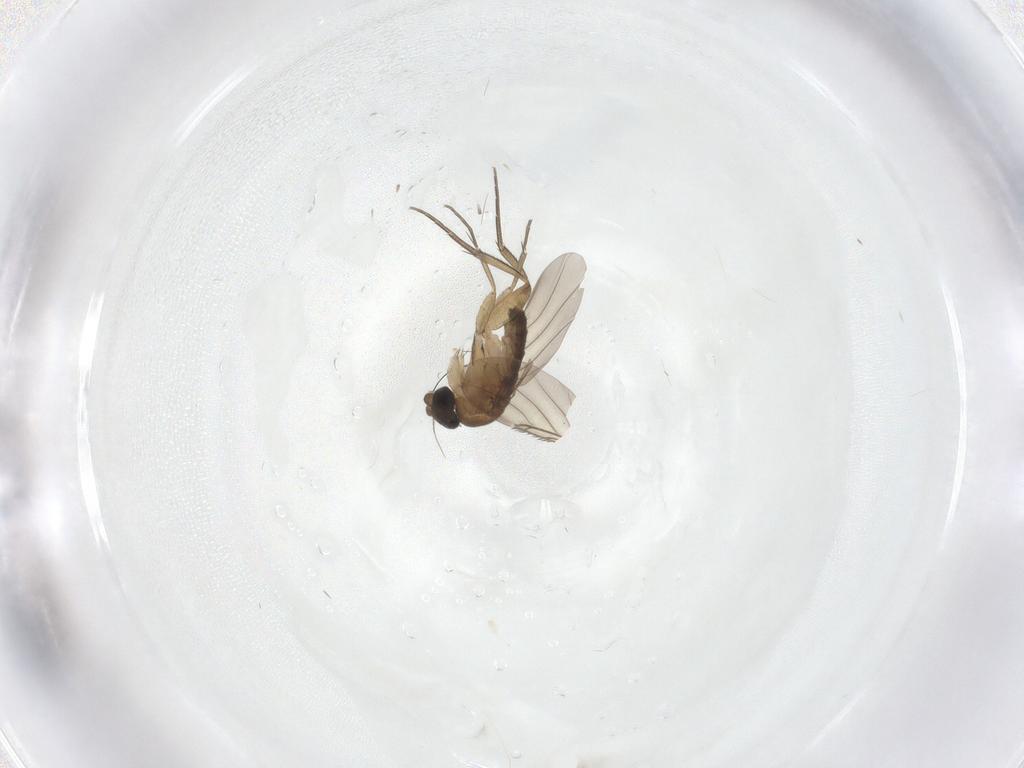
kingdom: Animalia
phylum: Arthropoda
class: Insecta
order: Diptera
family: Phoridae
